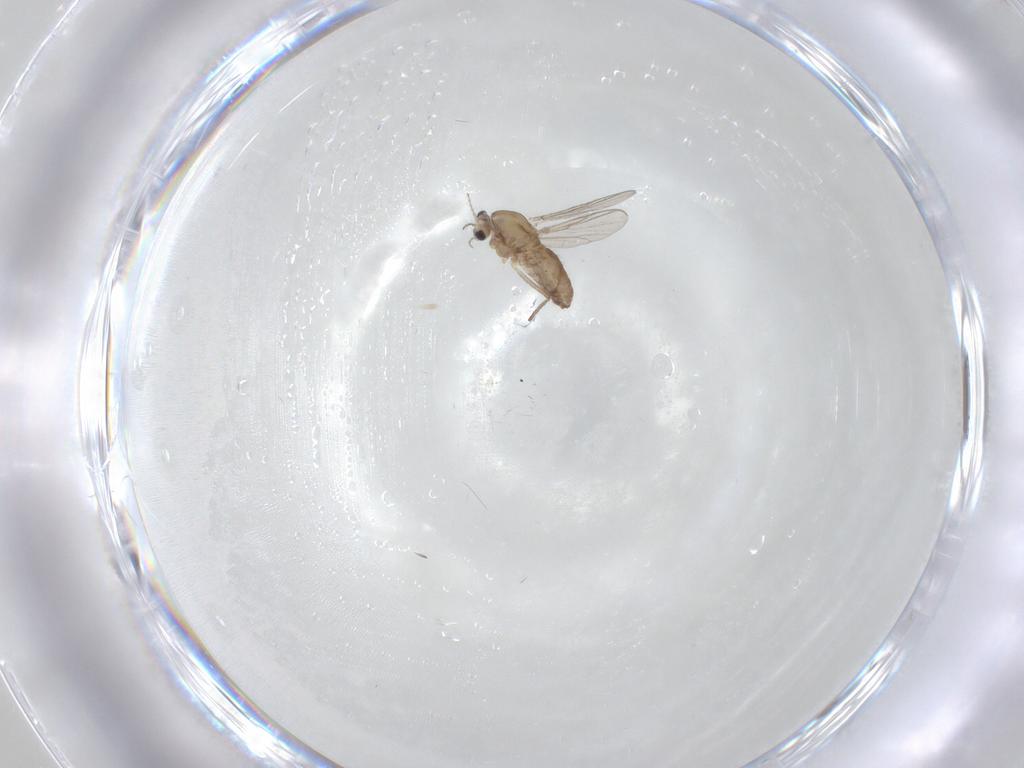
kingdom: Animalia
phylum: Arthropoda
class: Insecta
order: Diptera
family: Chironomidae
